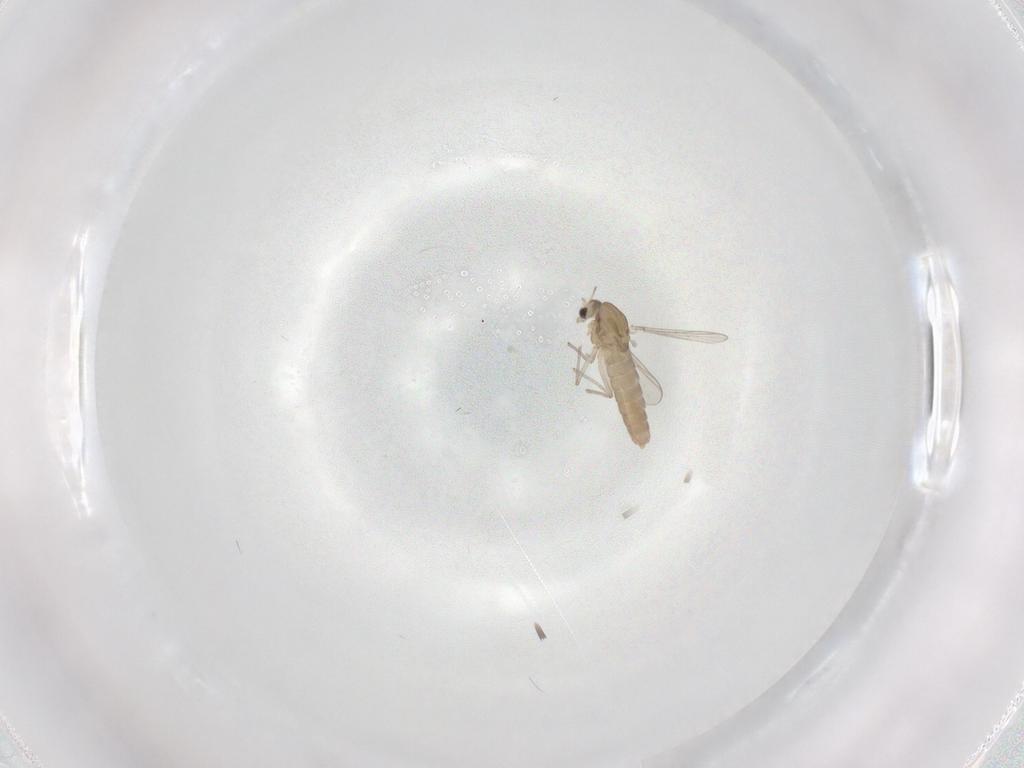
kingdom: Animalia
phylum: Arthropoda
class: Insecta
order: Diptera
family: Chironomidae
